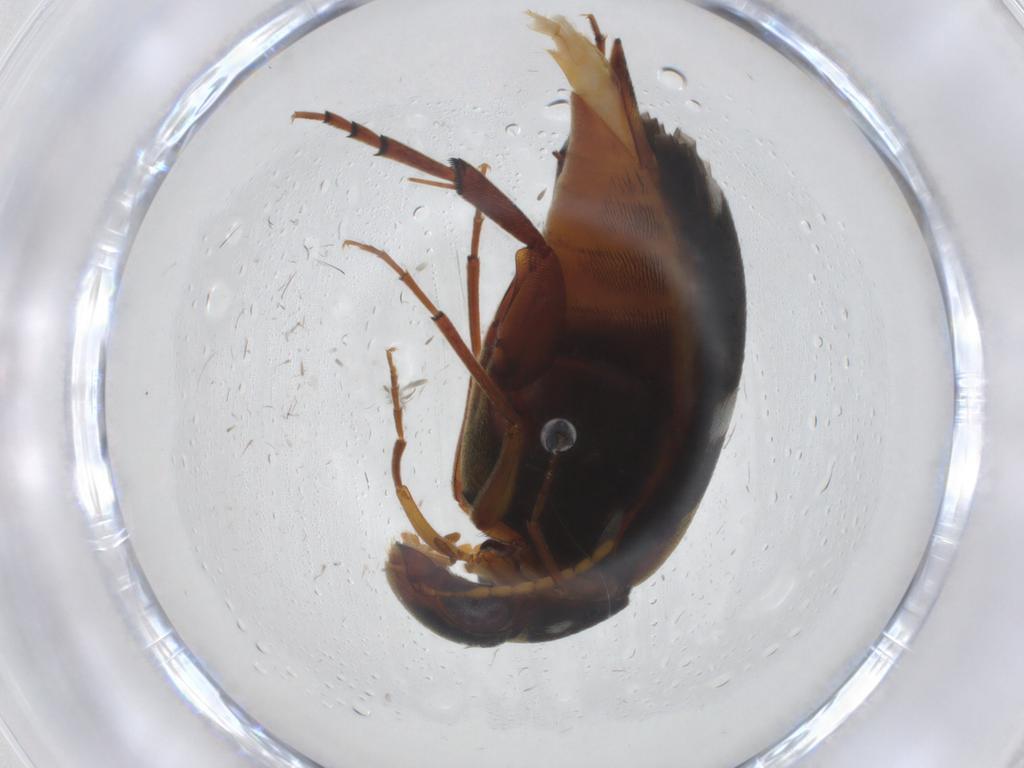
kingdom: Animalia
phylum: Arthropoda
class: Insecta
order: Coleoptera
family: Mordellidae
